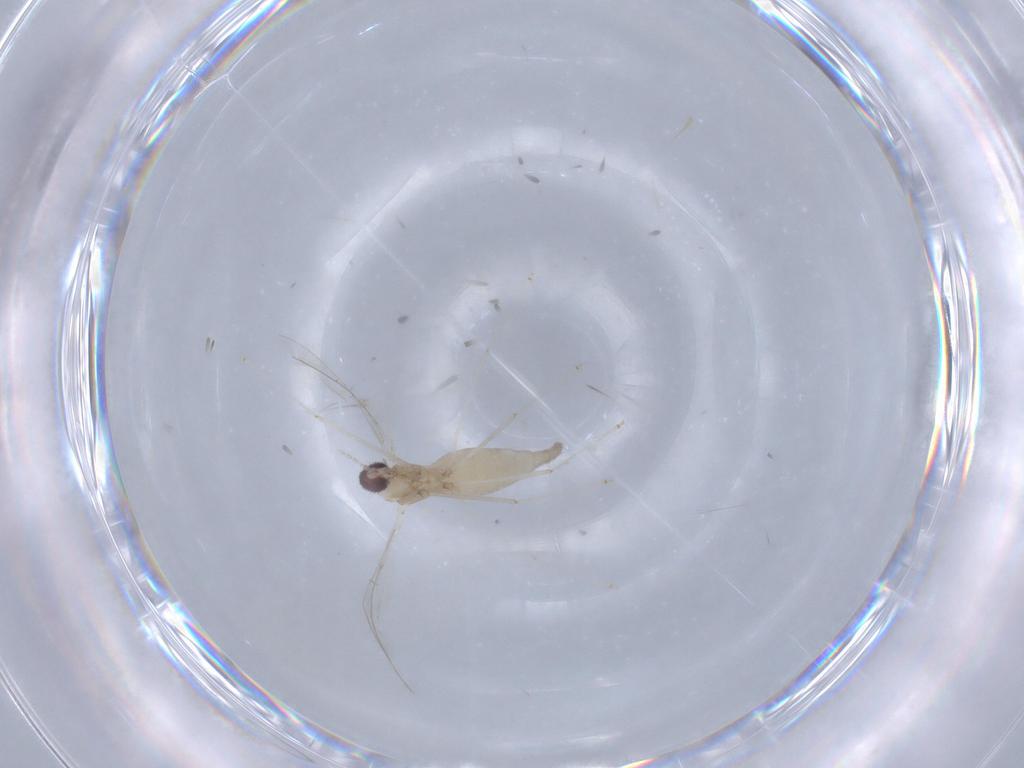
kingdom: Animalia
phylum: Arthropoda
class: Insecta
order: Diptera
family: Cecidomyiidae
